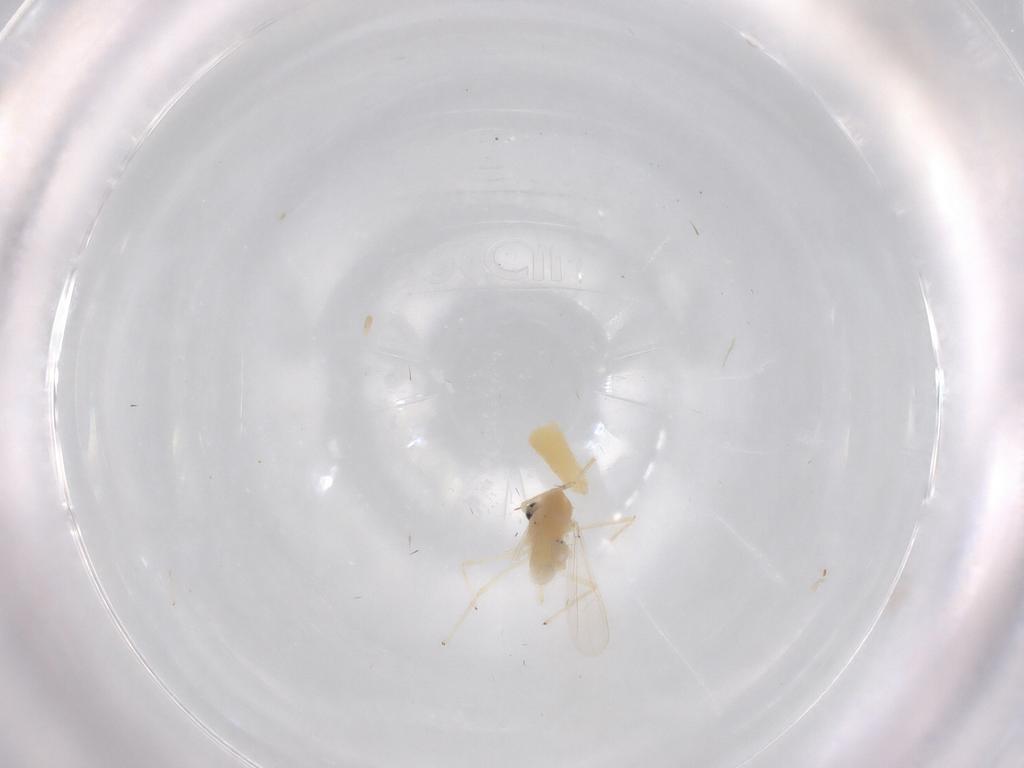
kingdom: Animalia
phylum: Arthropoda
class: Insecta
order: Diptera
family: Chironomidae
